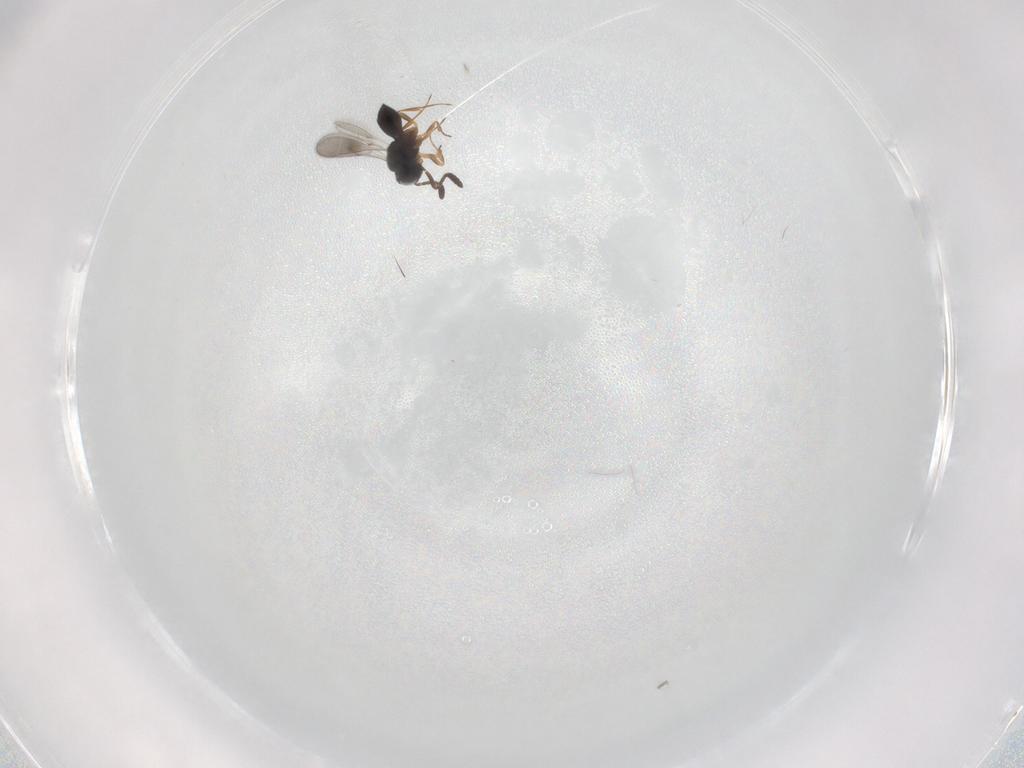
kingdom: Animalia
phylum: Arthropoda
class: Insecta
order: Hymenoptera
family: Scelionidae
